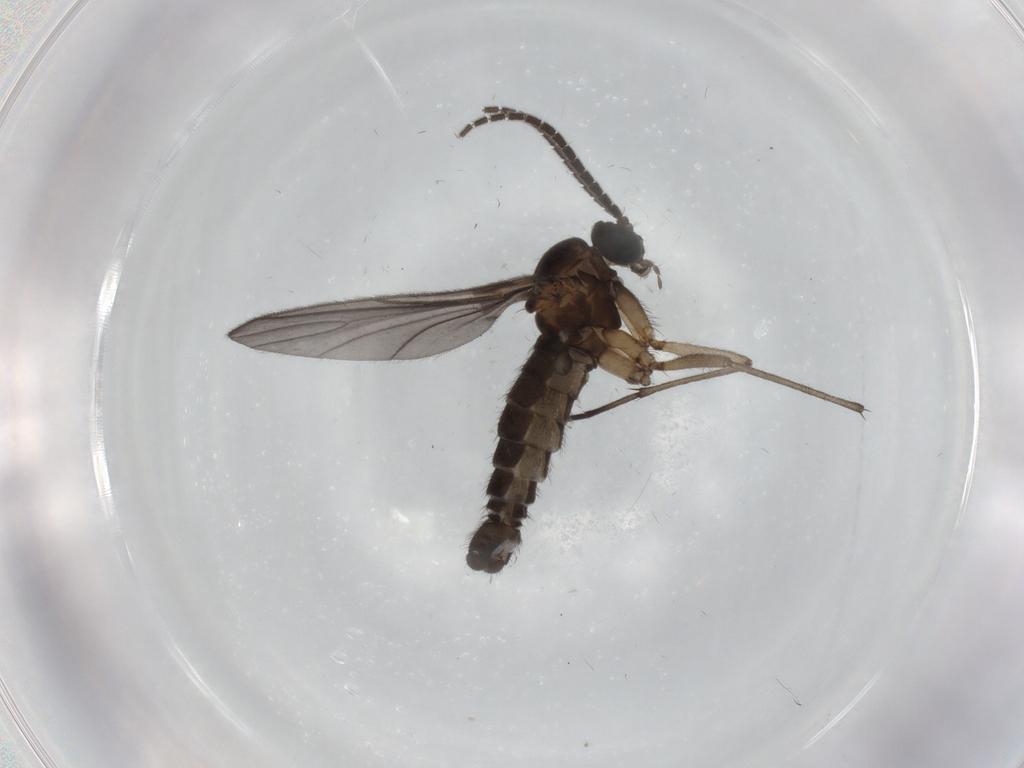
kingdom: Animalia
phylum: Arthropoda
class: Insecta
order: Diptera
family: Sciaridae
